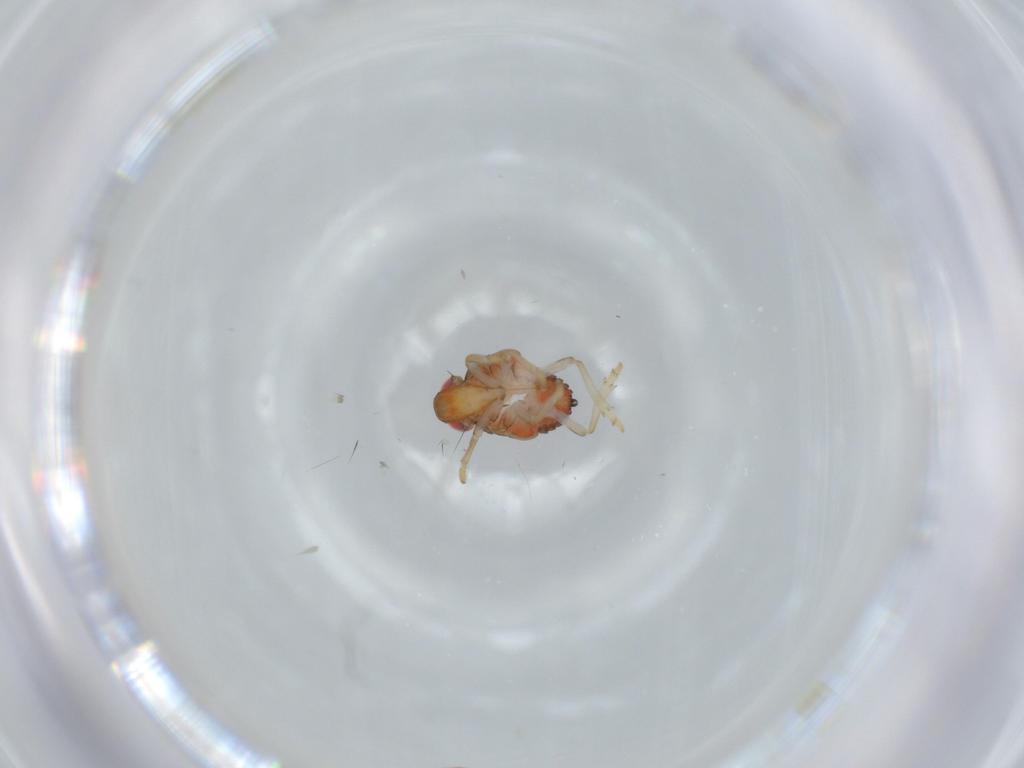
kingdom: Animalia
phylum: Arthropoda
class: Insecta
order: Hemiptera
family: Issidae
